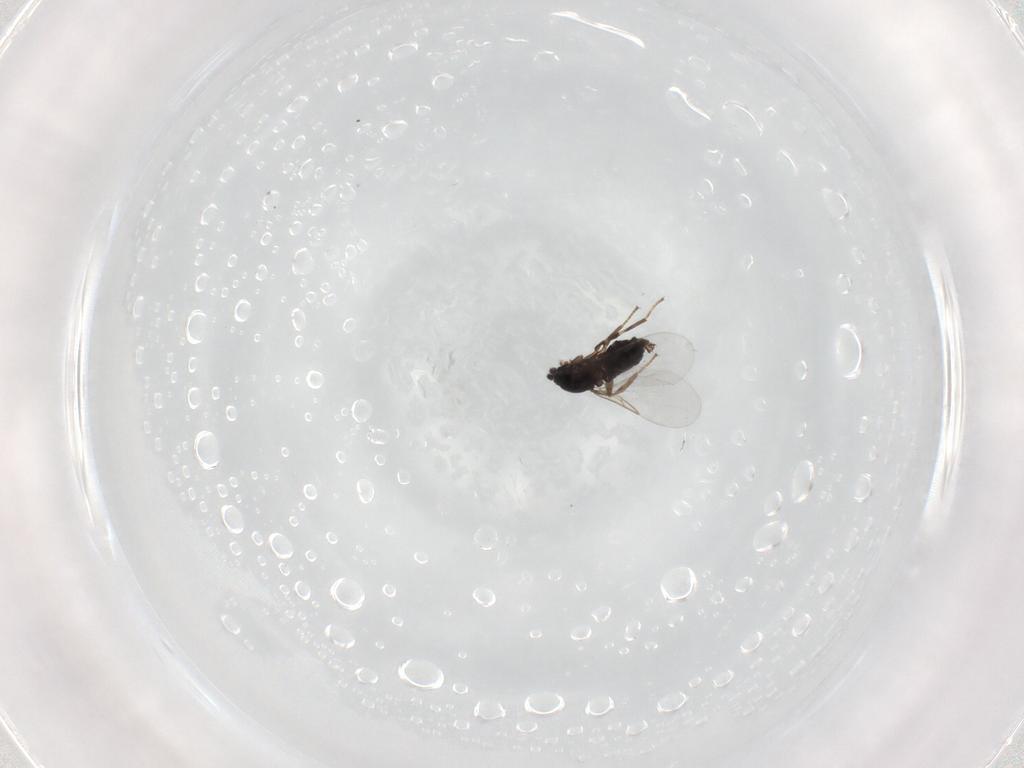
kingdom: Animalia
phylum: Arthropoda
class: Insecta
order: Diptera
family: Scatopsidae
